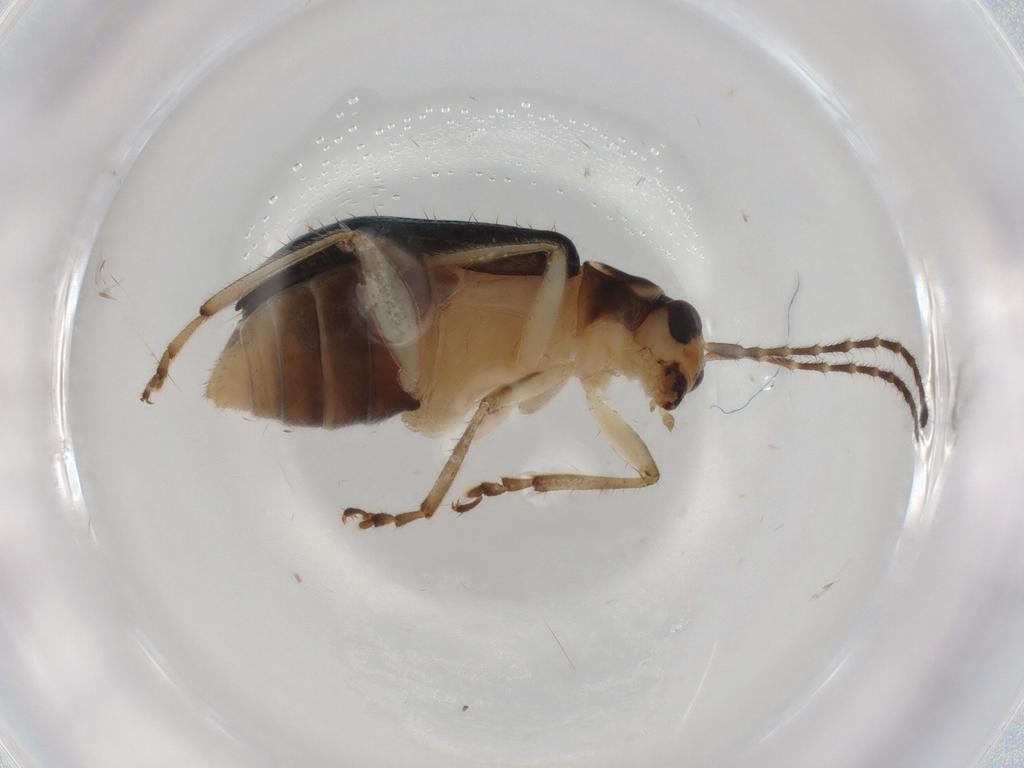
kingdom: Animalia
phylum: Arthropoda
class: Insecta
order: Coleoptera
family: Chrysomelidae
